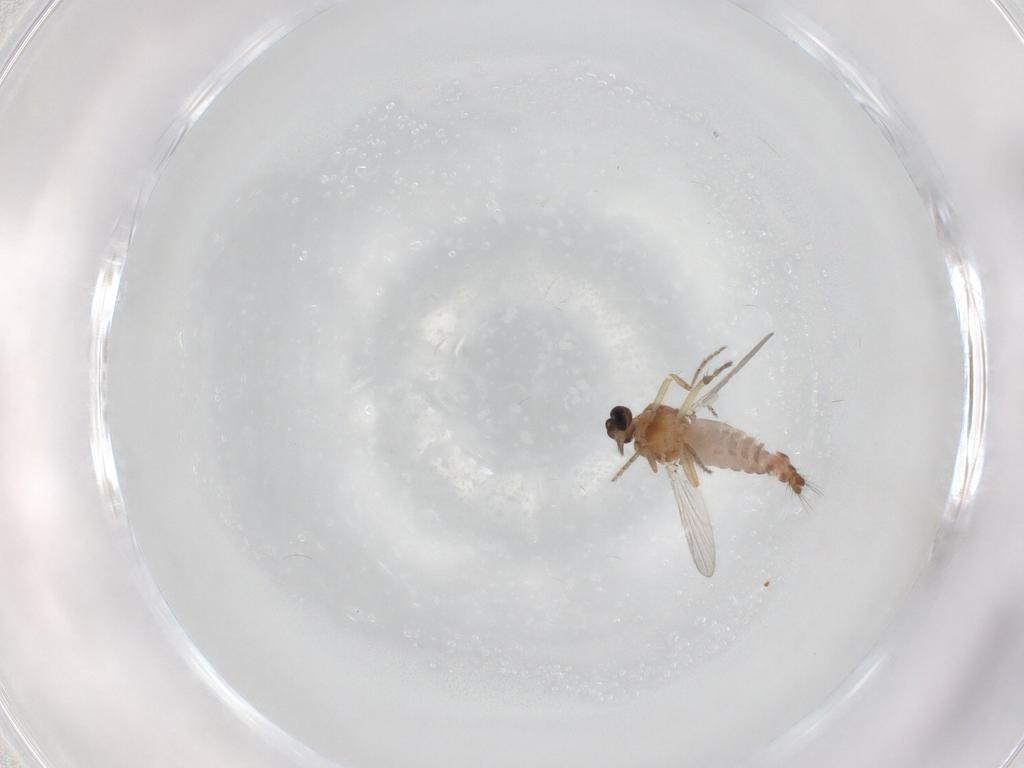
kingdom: Animalia
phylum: Arthropoda
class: Insecta
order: Diptera
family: Ceratopogonidae
